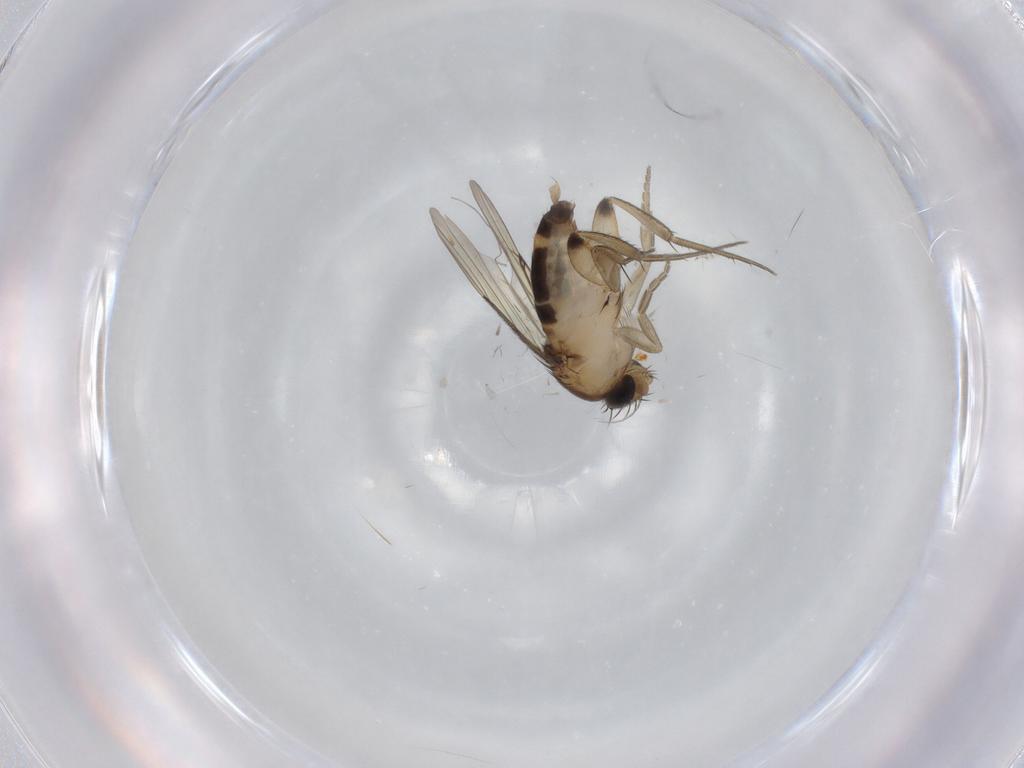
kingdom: Animalia
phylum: Arthropoda
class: Insecta
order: Diptera
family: Phoridae
